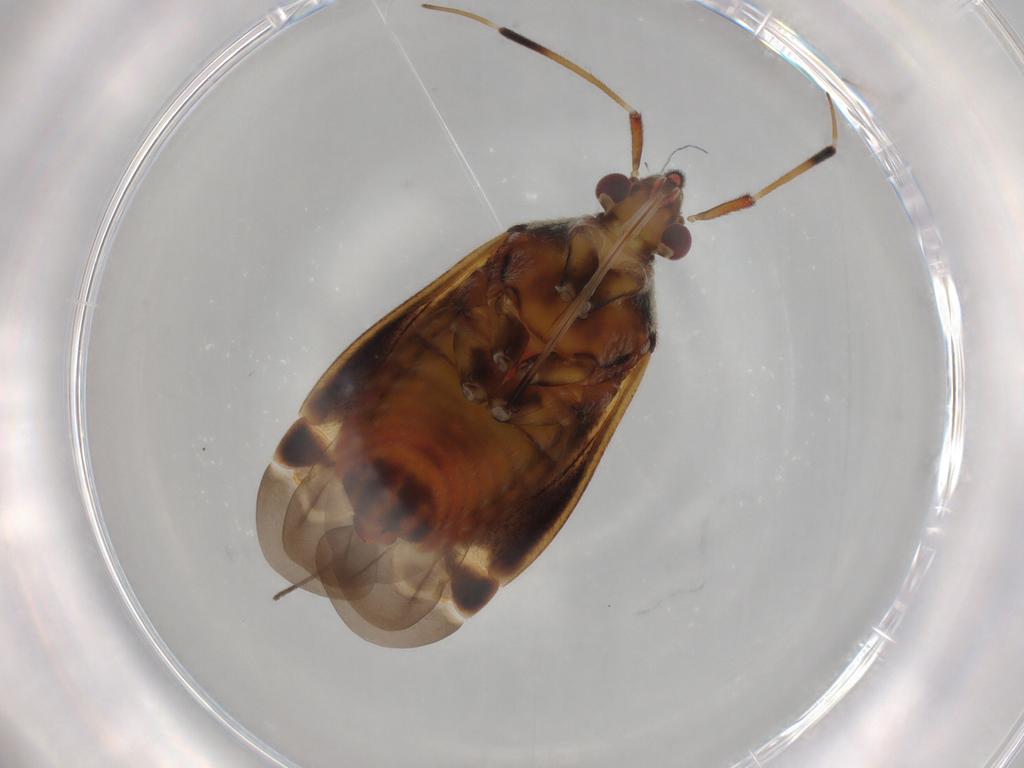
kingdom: Animalia
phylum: Arthropoda
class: Insecta
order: Hemiptera
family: Miridae
